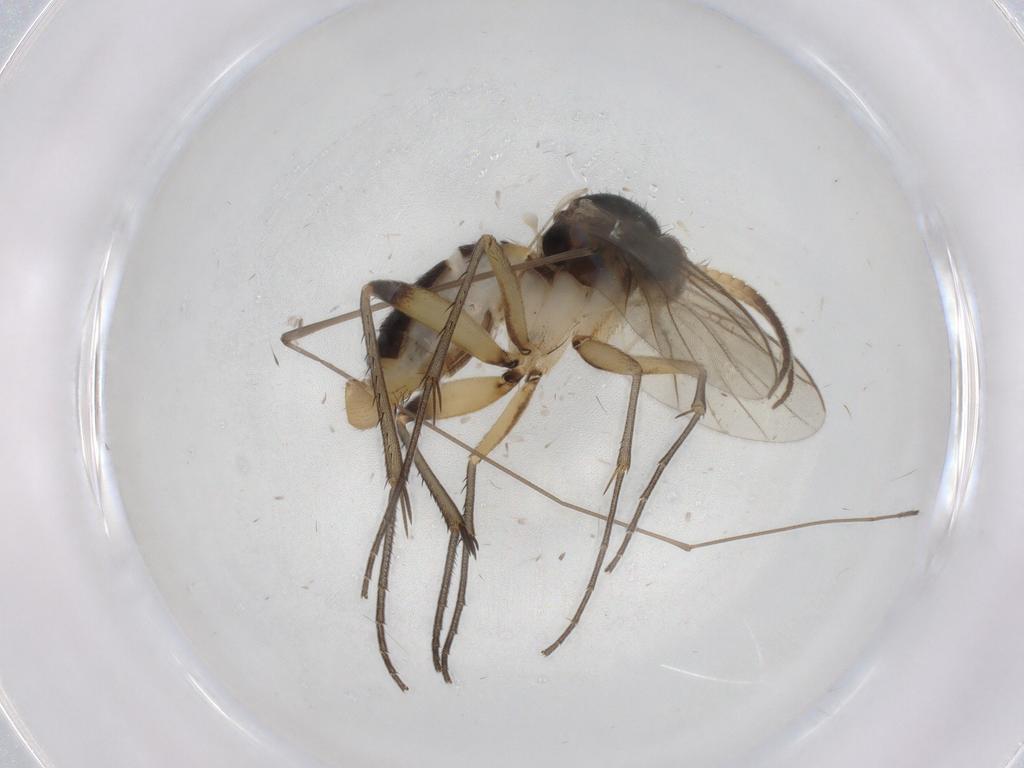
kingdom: Animalia
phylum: Arthropoda
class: Insecta
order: Diptera
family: Mycetophilidae
